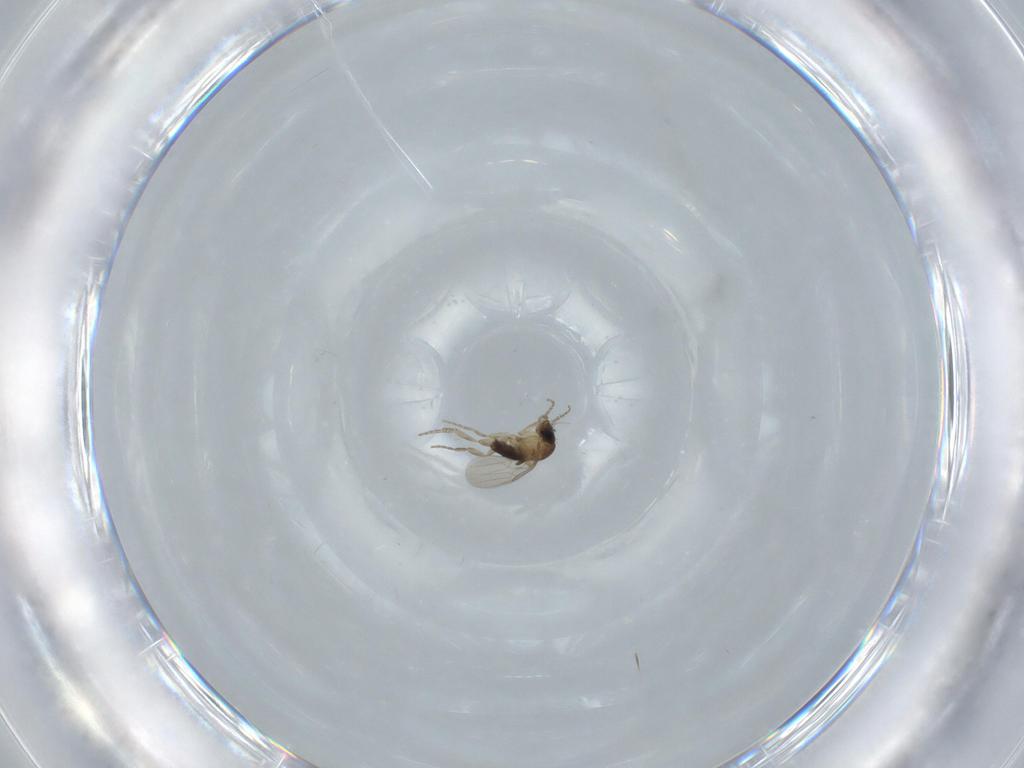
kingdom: Animalia
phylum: Arthropoda
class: Insecta
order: Diptera
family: Phoridae
